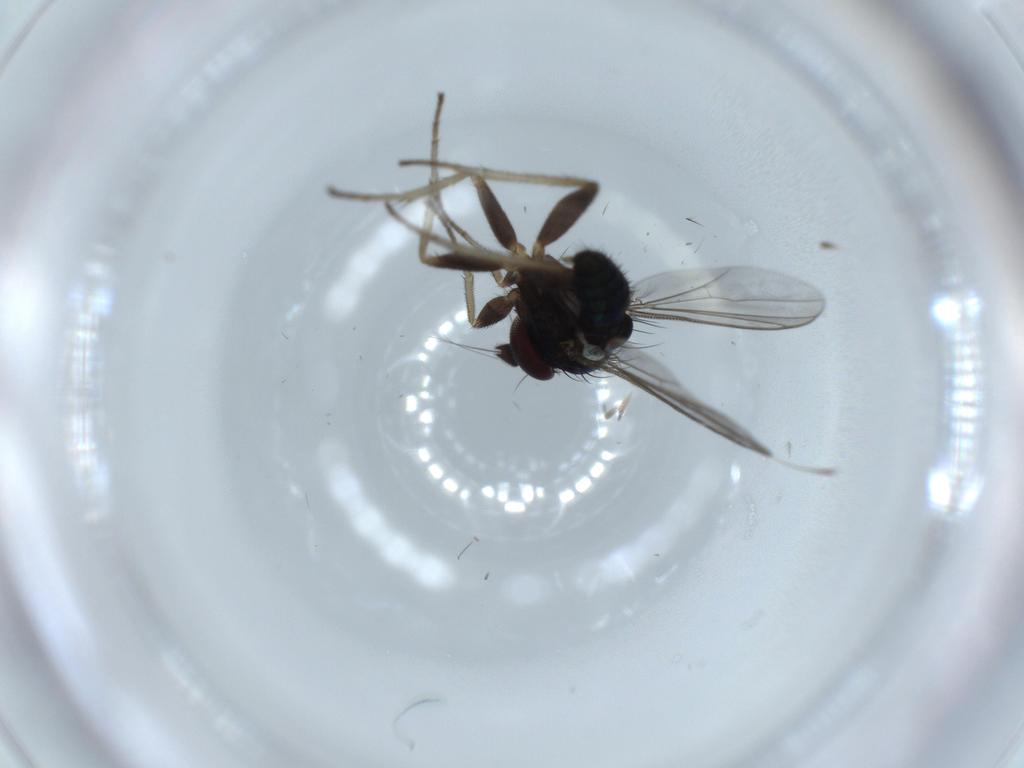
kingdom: Animalia
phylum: Arthropoda
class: Insecta
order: Diptera
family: Dolichopodidae
